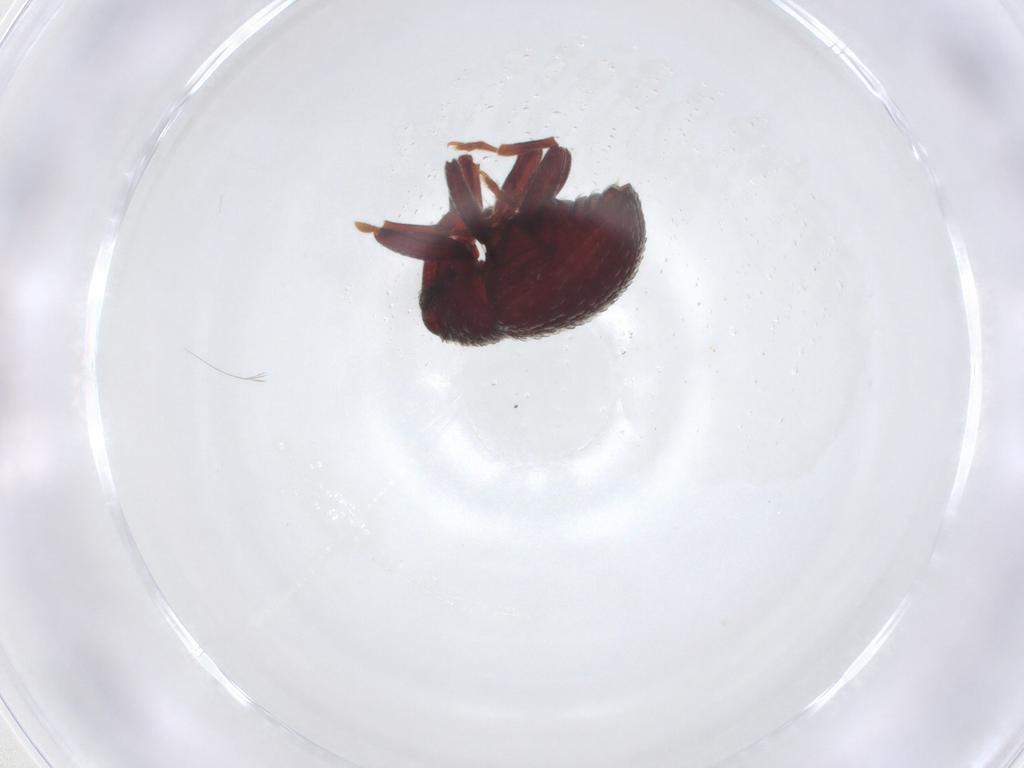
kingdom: Animalia
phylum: Arthropoda
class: Insecta
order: Coleoptera
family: Curculionidae
